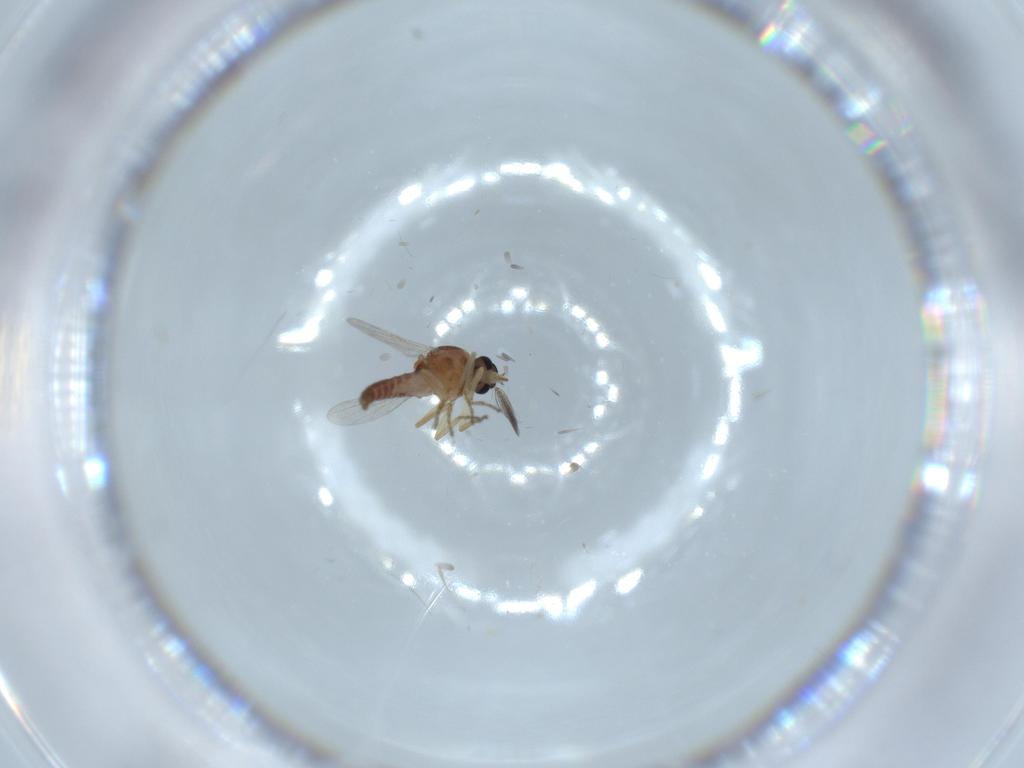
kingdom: Animalia
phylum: Arthropoda
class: Insecta
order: Diptera
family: Ceratopogonidae
